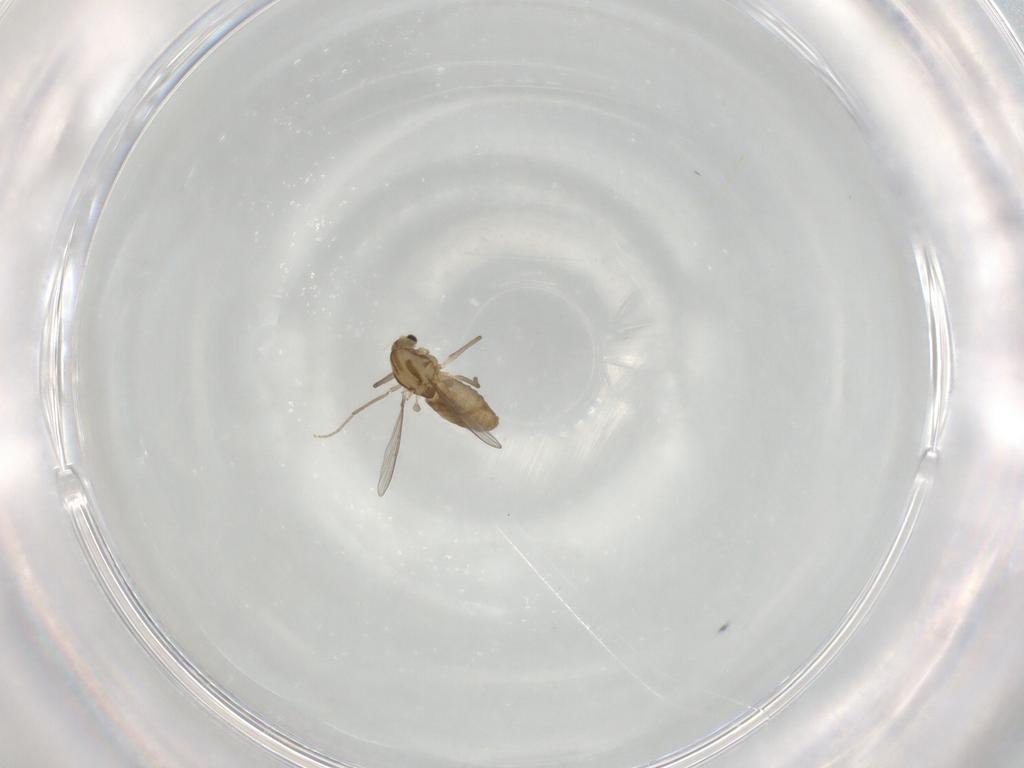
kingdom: Animalia
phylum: Arthropoda
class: Insecta
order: Diptera
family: Chironomidae
